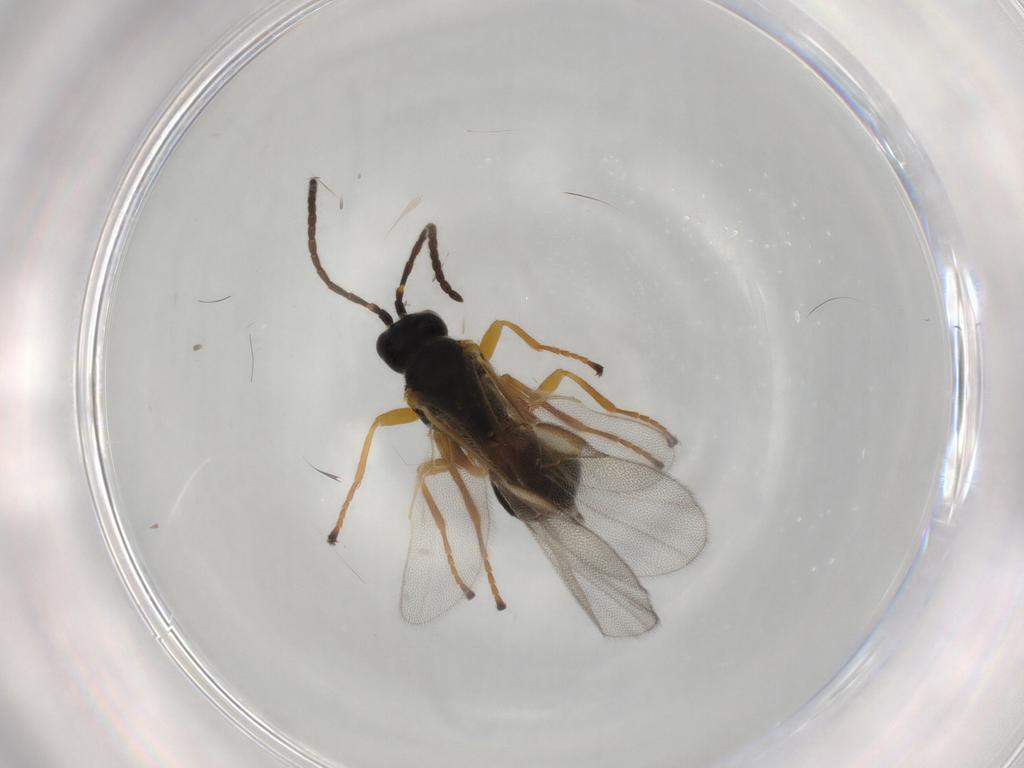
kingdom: Animalia
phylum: Arthropoda
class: Insecta
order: Hymenoptera
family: Braconidae
